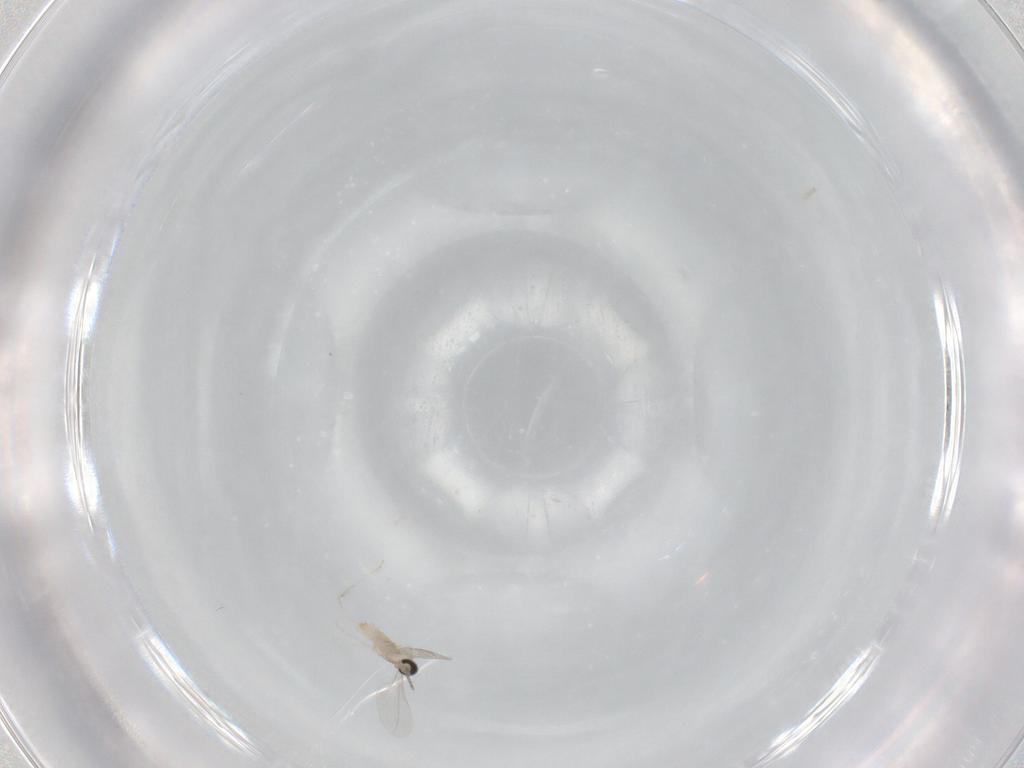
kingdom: Animalia
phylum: Arthropoda
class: Insecta
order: Diptera
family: Cecidomyiidae
